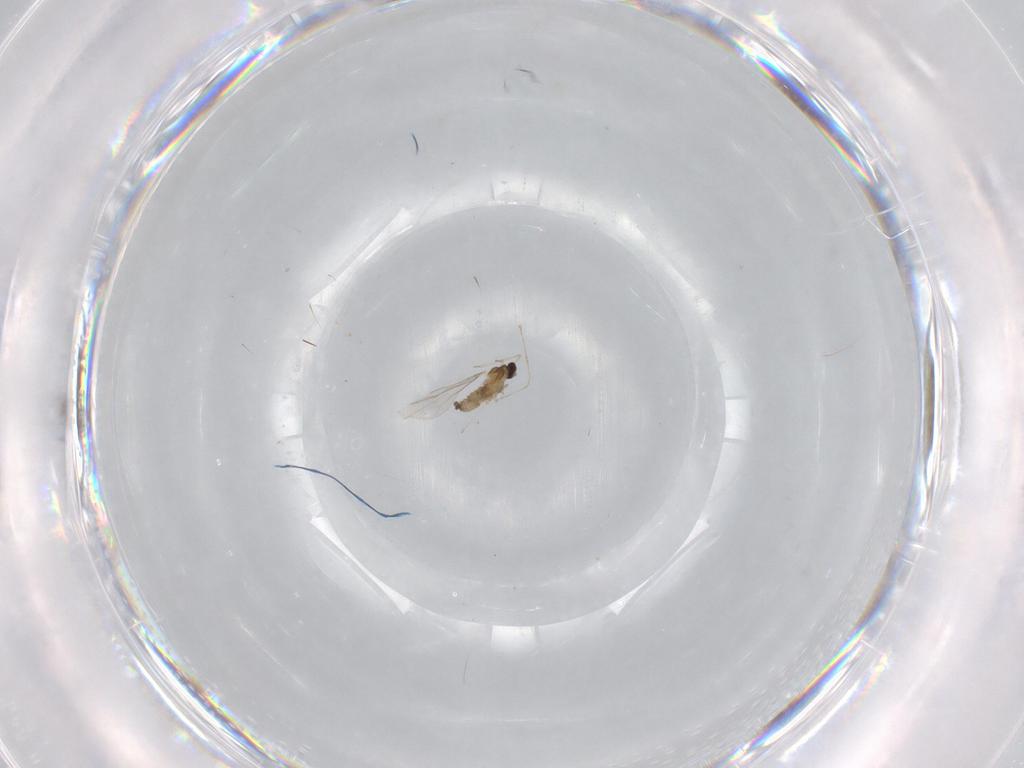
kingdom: Animalia
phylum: Arthropoda
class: Insecta
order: Diptera
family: Cecidomyiidae
